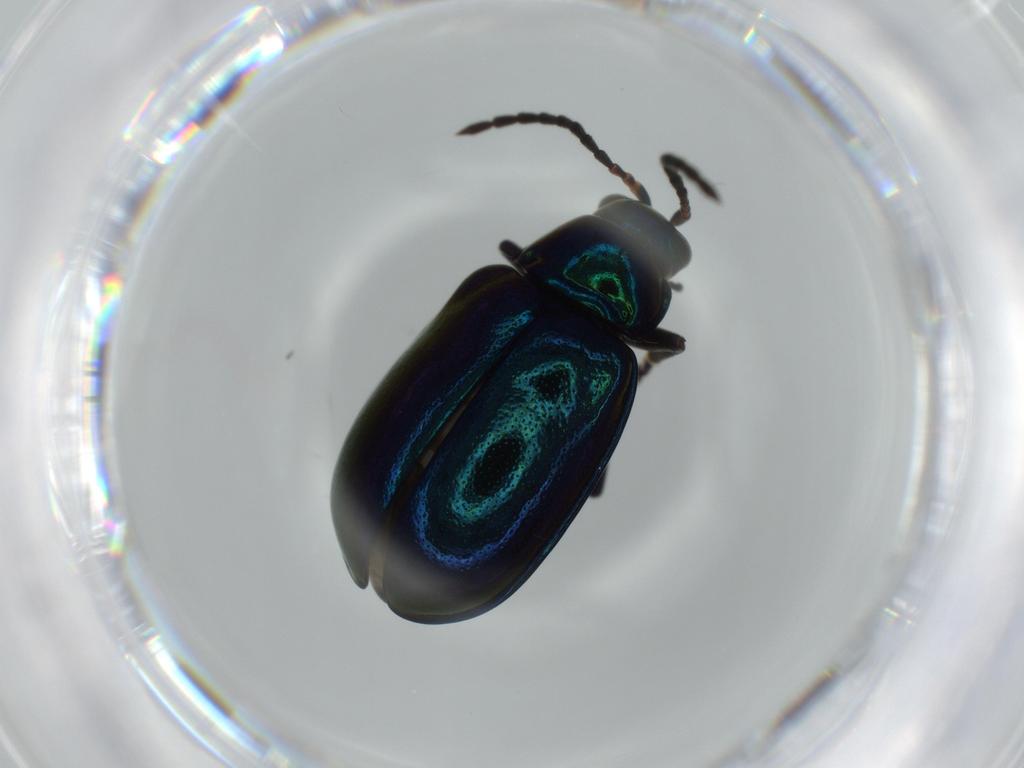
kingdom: Animalia
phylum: Arthropoda
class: Insecta
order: Coleoptera
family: Chrysomelidae
